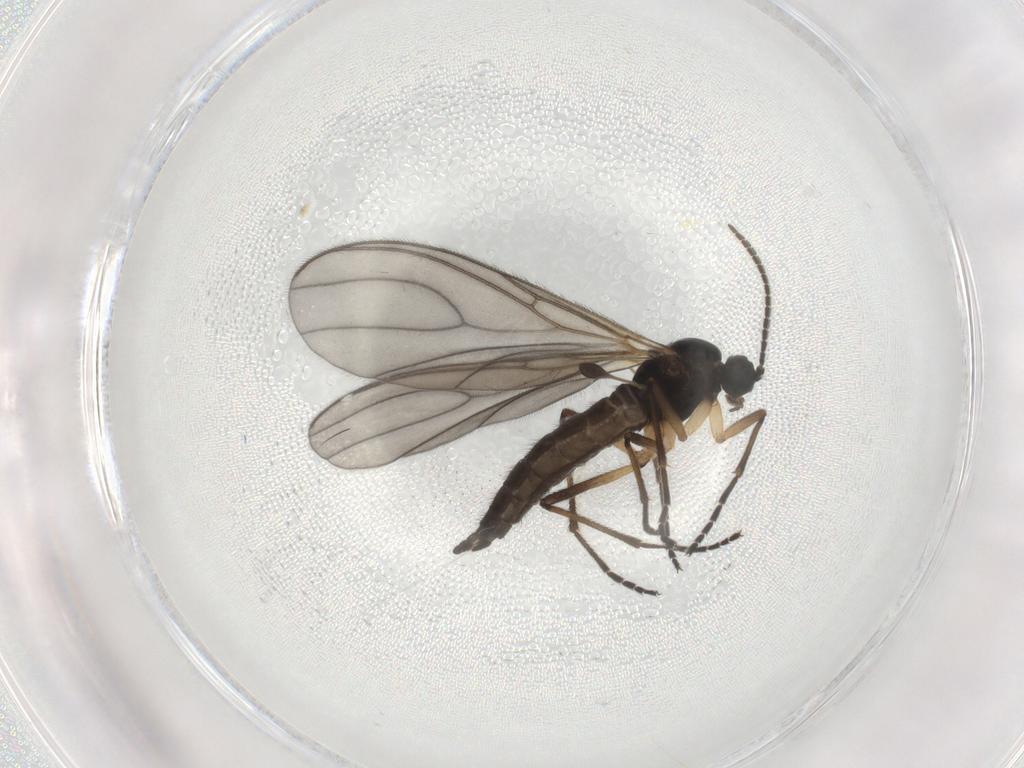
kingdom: Animalia
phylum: Arthropoda
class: Insecta
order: Diptera
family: Sciaridae
